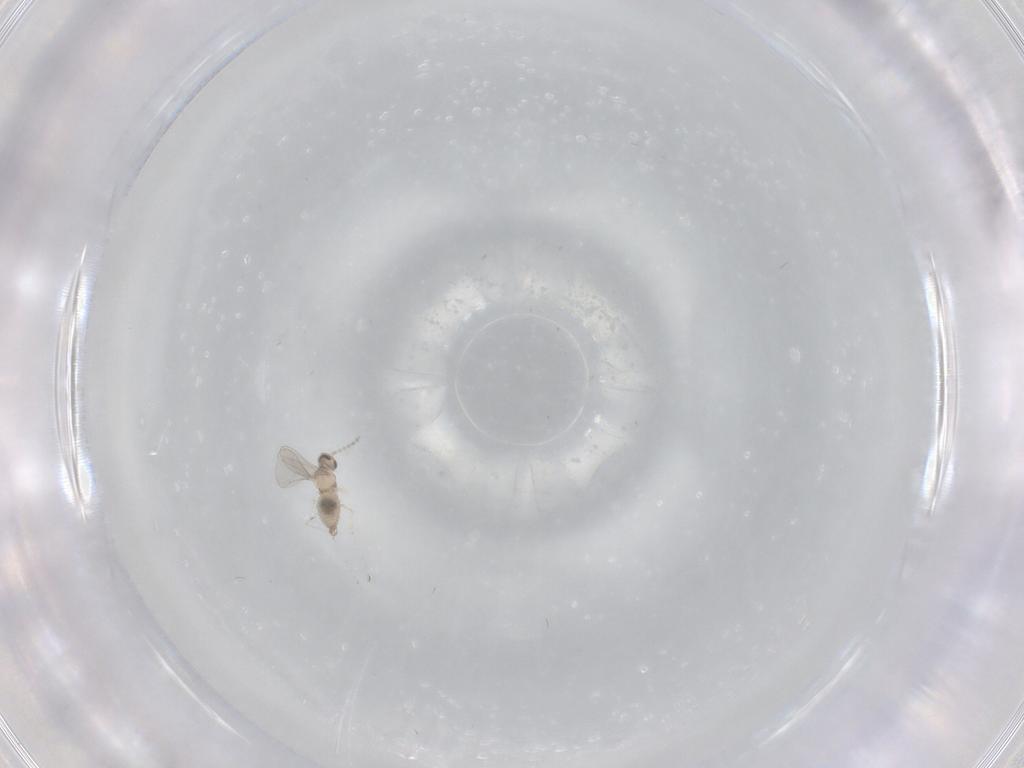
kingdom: Animalia
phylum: Arthropoda
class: Insecta
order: Diptera
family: Cecidomyiidae
